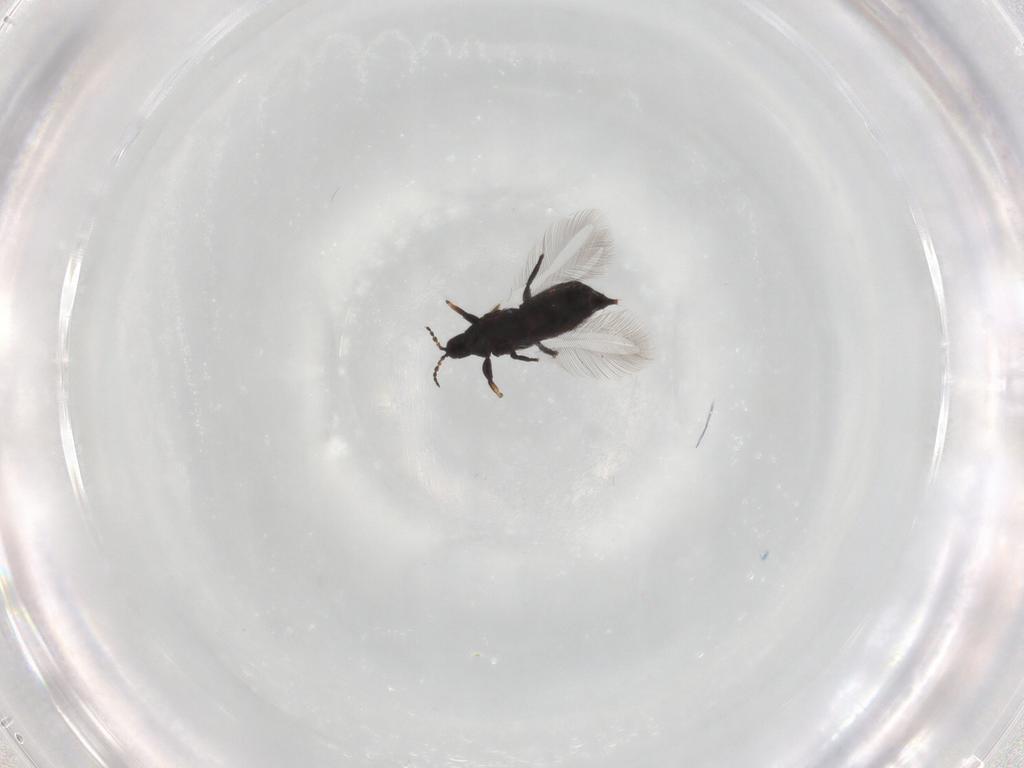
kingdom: Animalia
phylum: Arthropoda
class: Insecta
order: Thysanoptera
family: Phlaeothripidae
